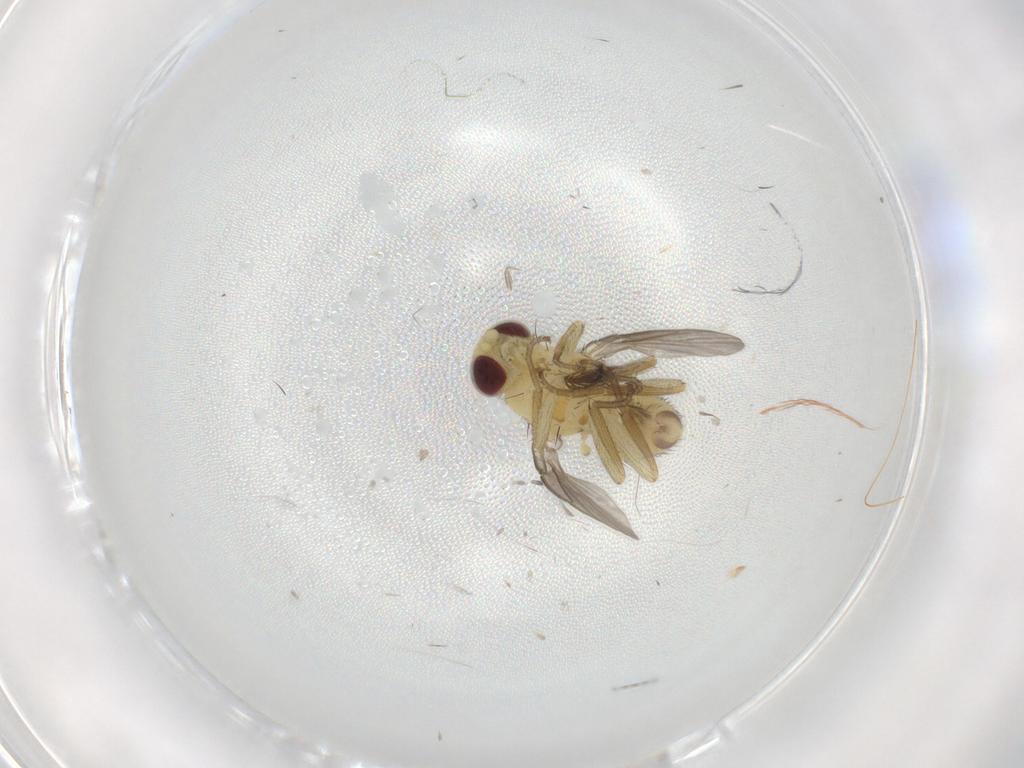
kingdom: Animalia
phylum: Arthropoda
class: Insecta
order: Diptera
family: Agromyzidae
